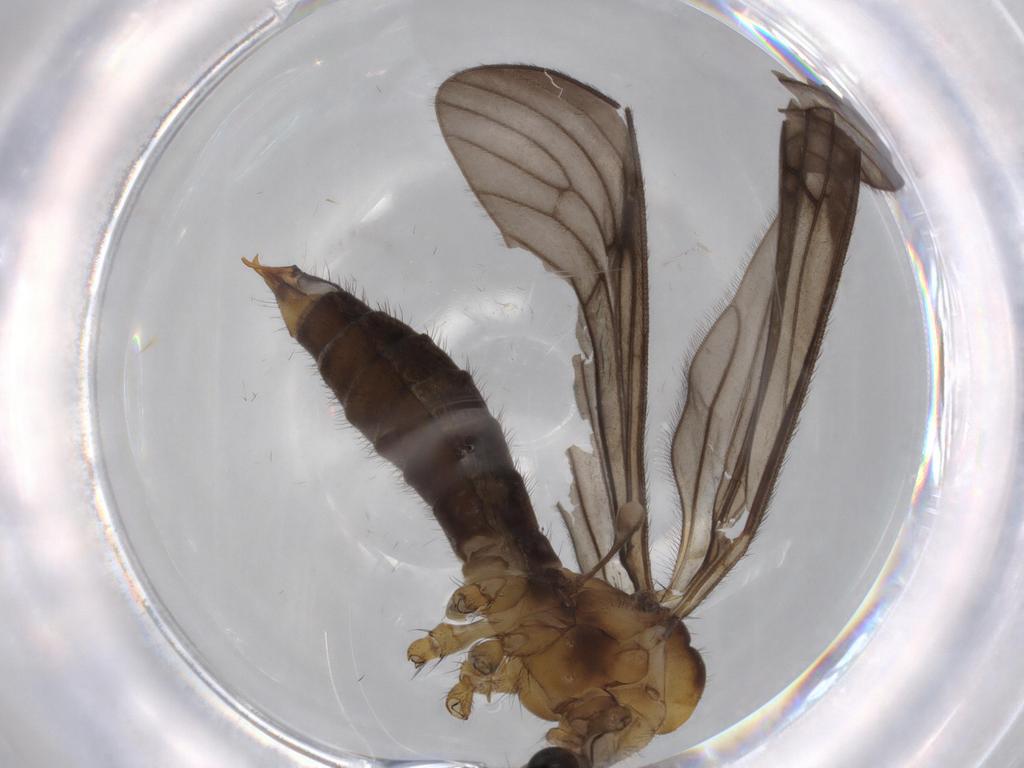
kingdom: Animalia
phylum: Arthropoda
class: Insecta
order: Diptera
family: Limoniidae
